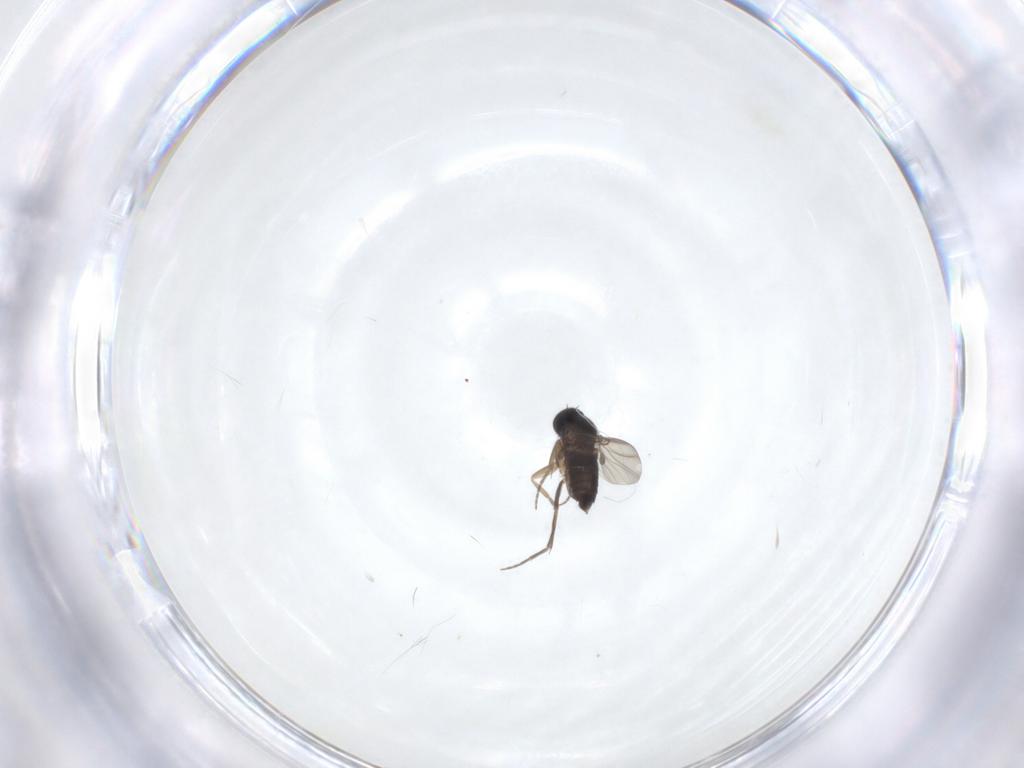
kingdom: Animalia
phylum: Arthropoda
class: Insecta
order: Diptera
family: Phoridae
